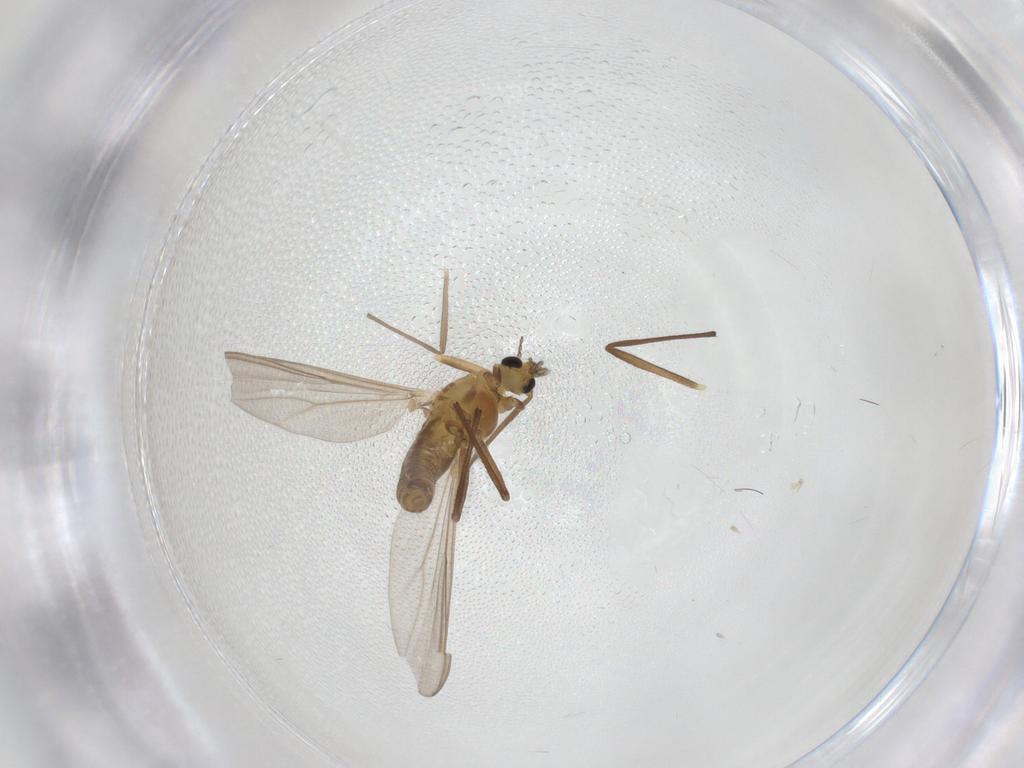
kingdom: Animalia
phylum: Arthropoda
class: Insecta
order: Diptera
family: Chironomidae
